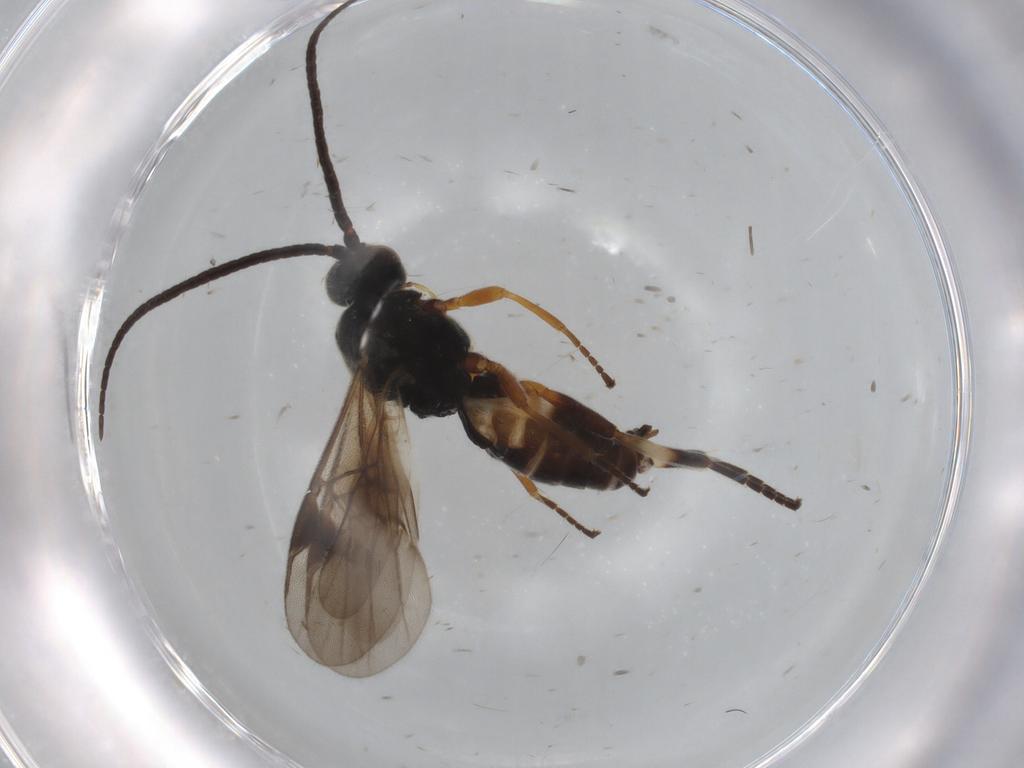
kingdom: Animalia
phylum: Arthropoda
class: Insecta
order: Hymenoptera
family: Braconidae
